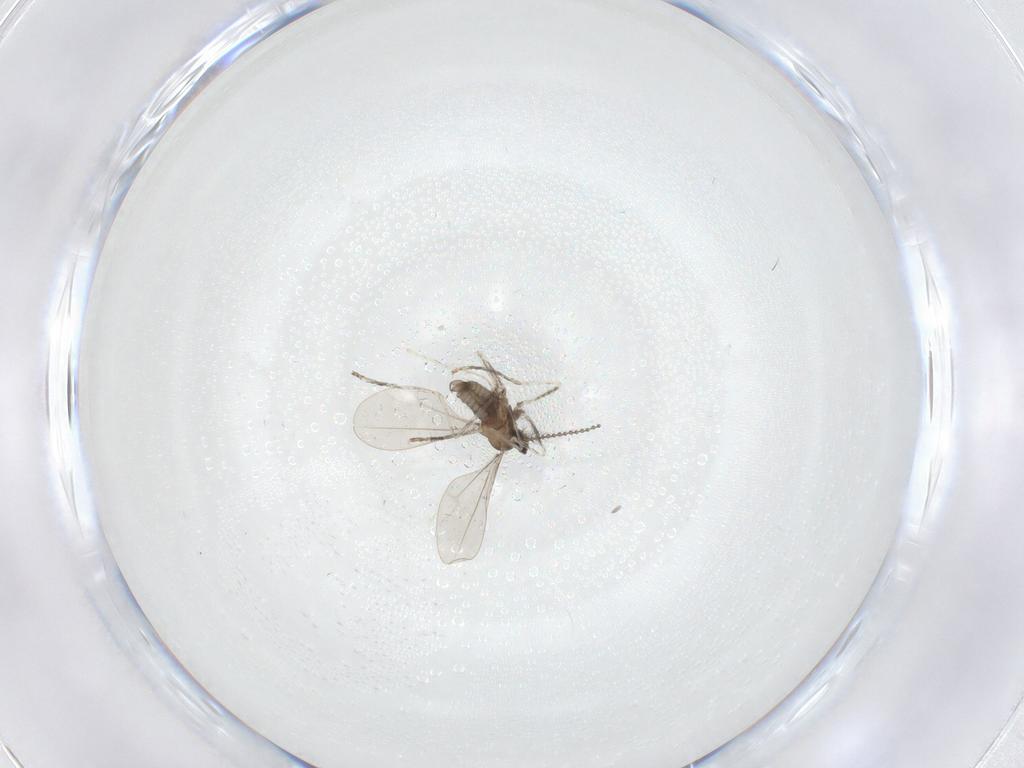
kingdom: Animalia
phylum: Arthropoda
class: Insecta
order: Diptera
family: Cecidomyiidae
